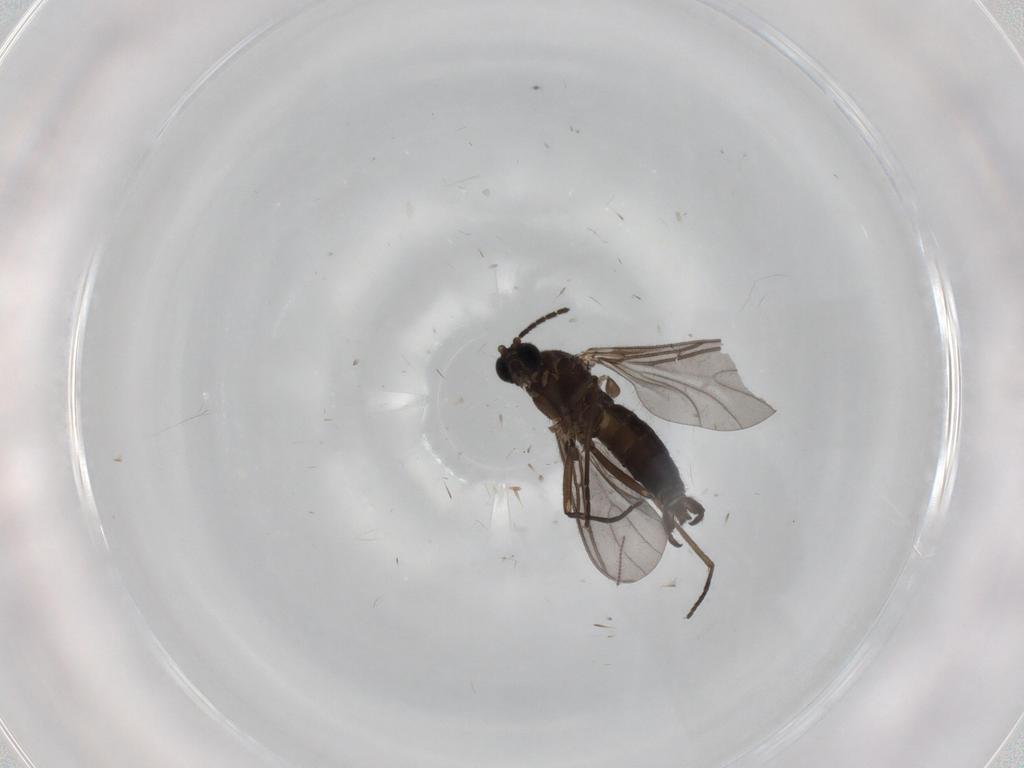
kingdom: Animalia
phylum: Arthropoda
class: Insecta
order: Diptera
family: Sciaridae
